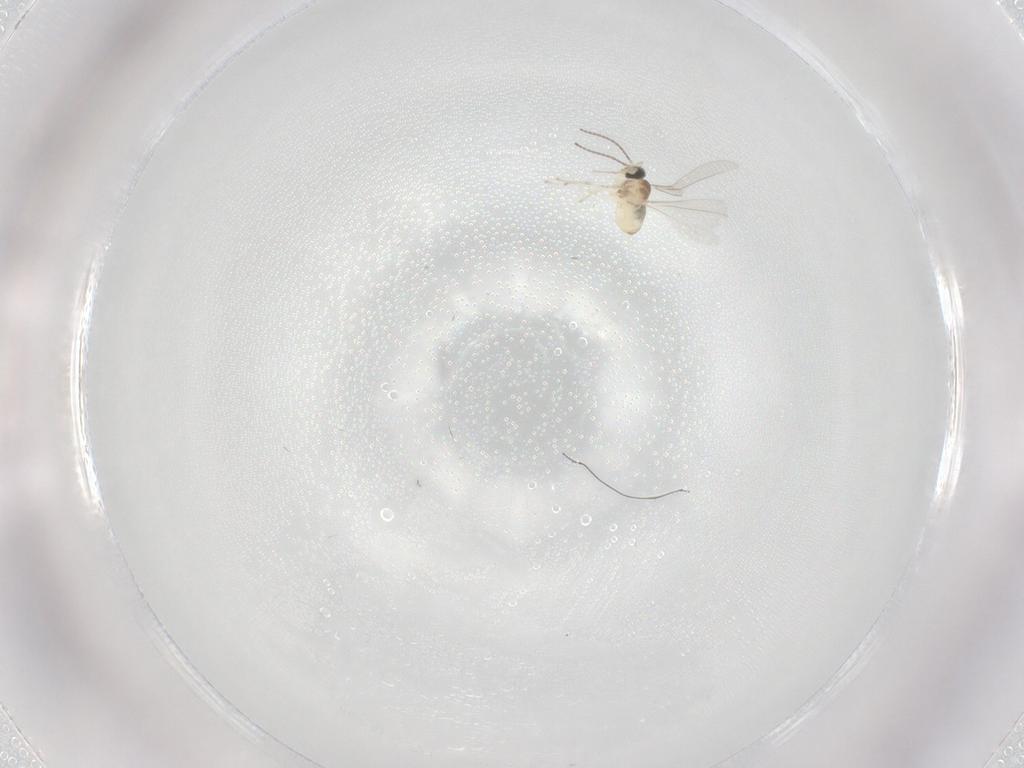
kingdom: Animalia
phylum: Arthropoda
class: Insecta
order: Diptera
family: Cecidomyiidae
